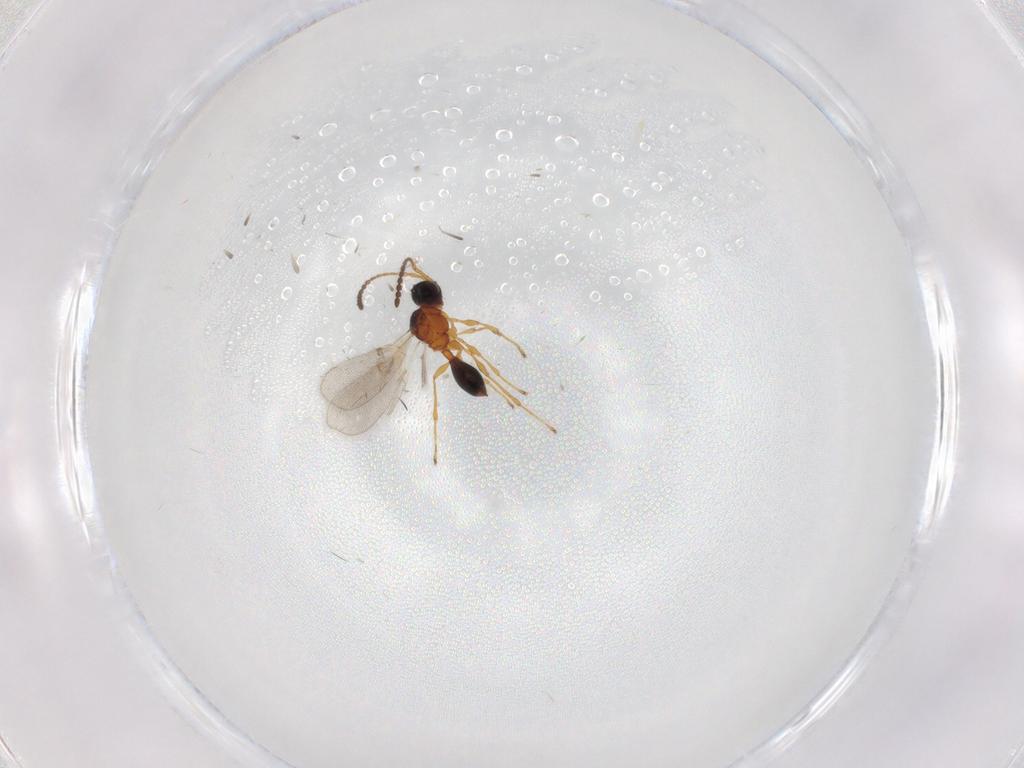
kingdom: Animalia
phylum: Arthropoda
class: Insecta
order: Hymenoptera
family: Diapriidae
